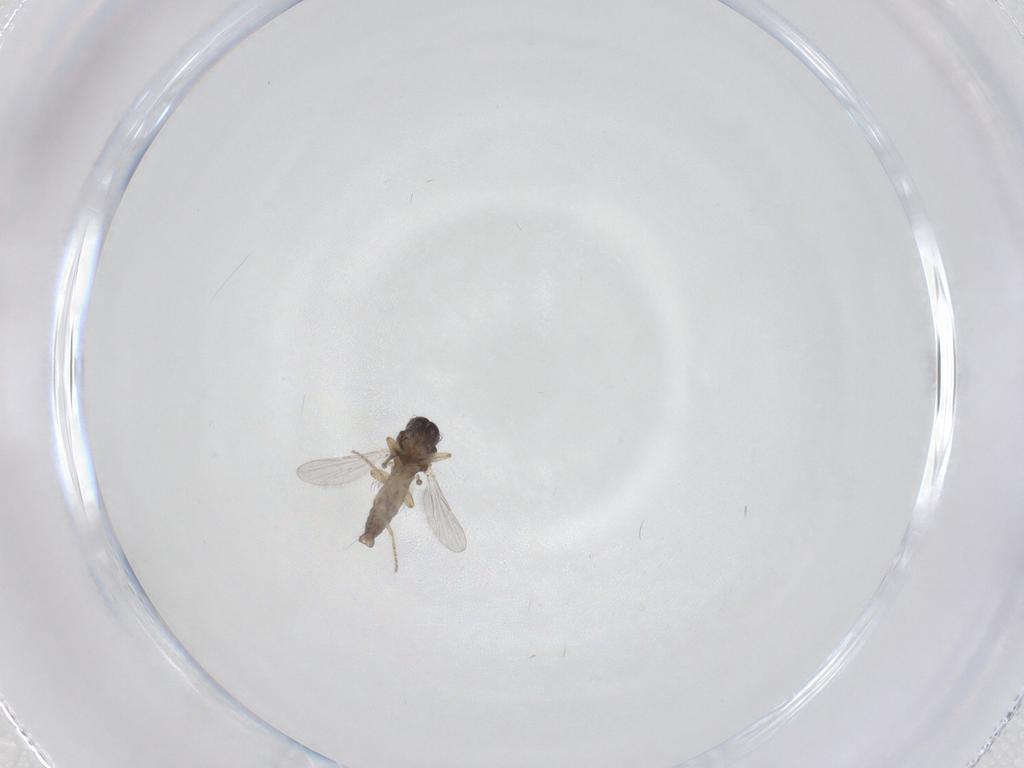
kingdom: Animalia
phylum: Arthropoda
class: Insecta
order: Diptera
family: Ceratopogonidae
